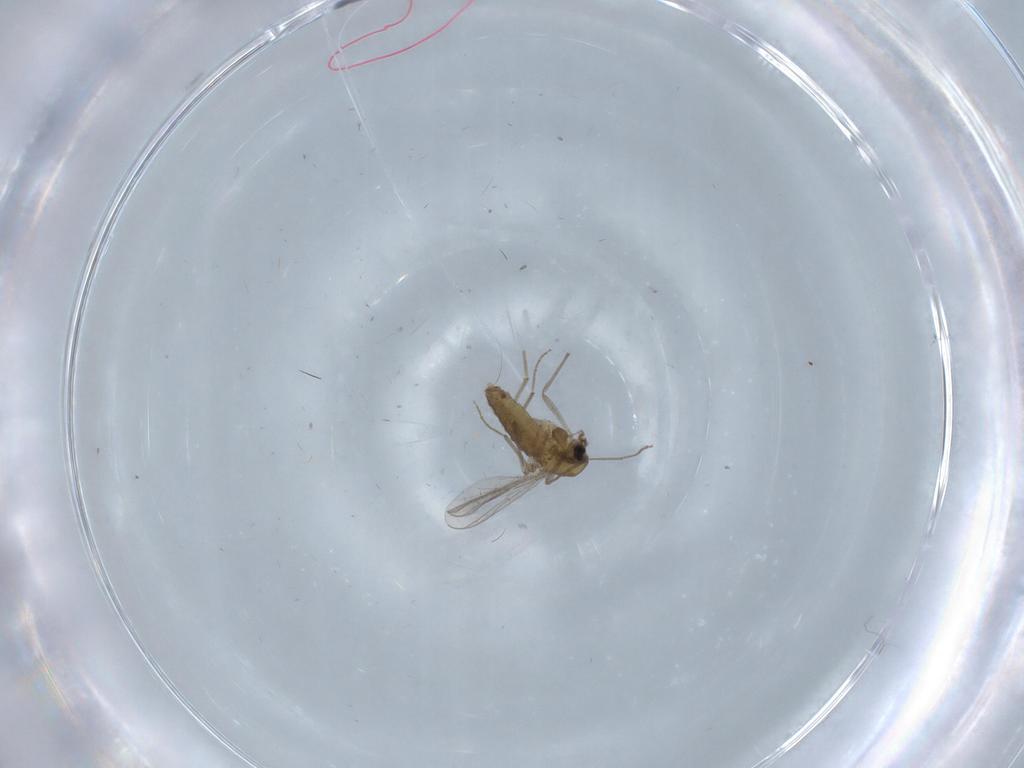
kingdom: Animalia
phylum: Arthropoda
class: Insecta
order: Diptera
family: Chironomidae
